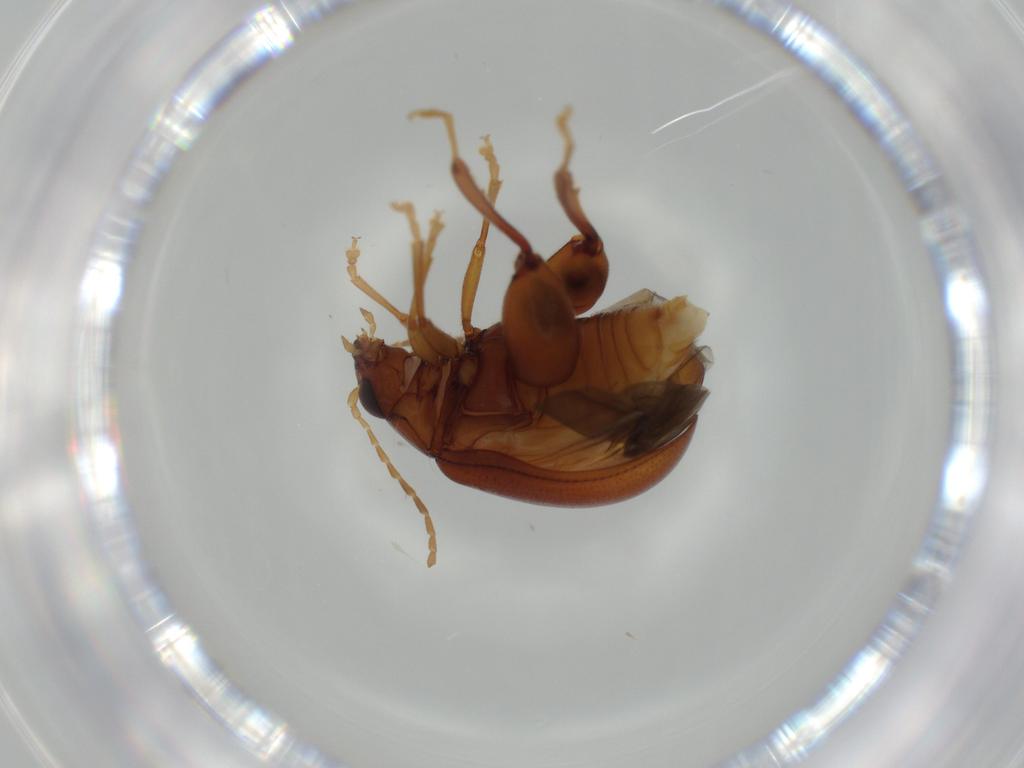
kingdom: Animalia
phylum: Arthropoda
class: Insecta
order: Coleoptera
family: Chrysomelidae
